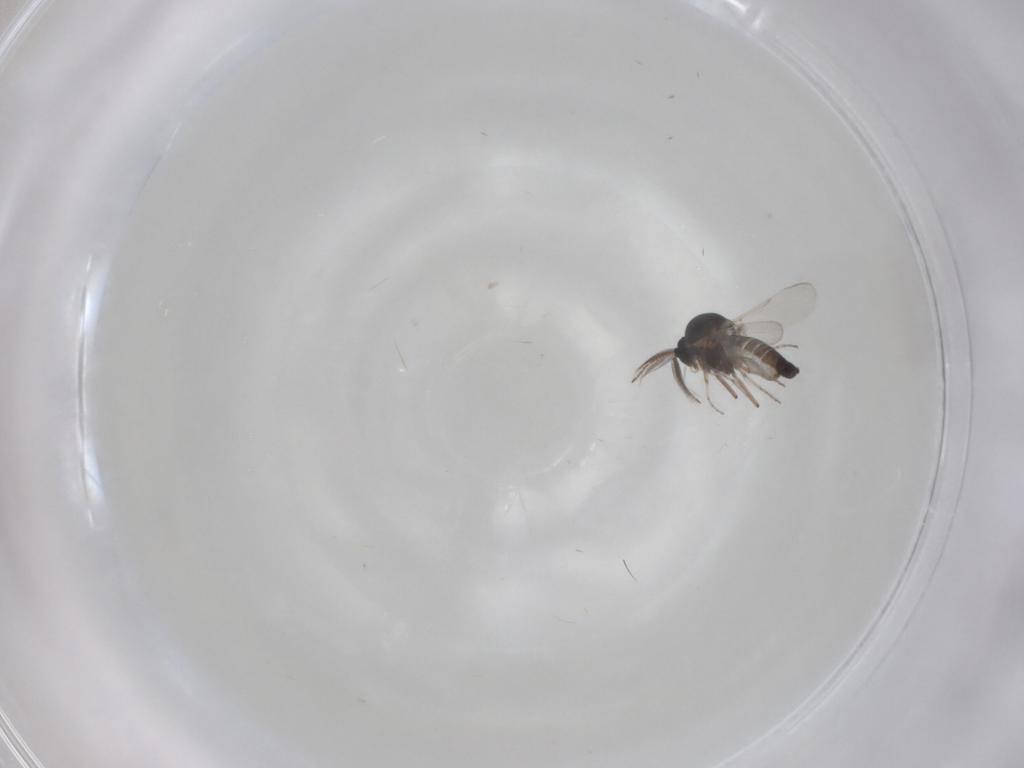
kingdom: Animalia
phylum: Arthropoda
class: Insecta
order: Diptera
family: Ceratopogonidae
